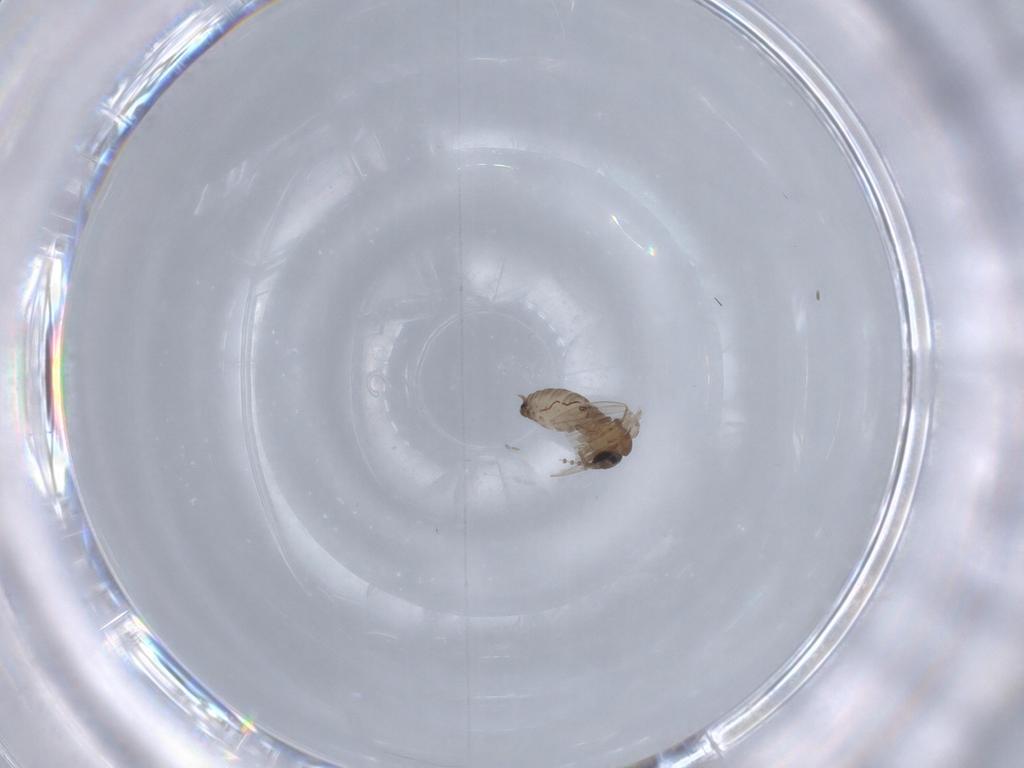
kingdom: Animalia
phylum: Arthropoda
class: Insecta
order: Diptera
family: Psychodidae
